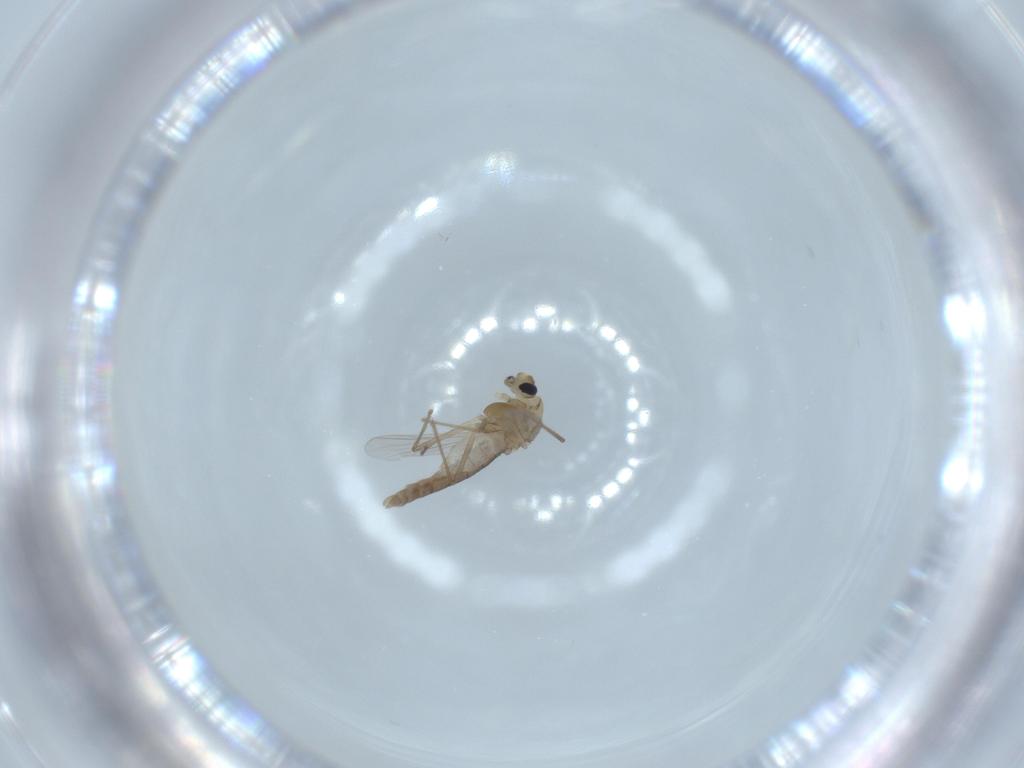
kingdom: Animalia
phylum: Arthropoda
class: Insecta
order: Diptera
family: Chironomidae
